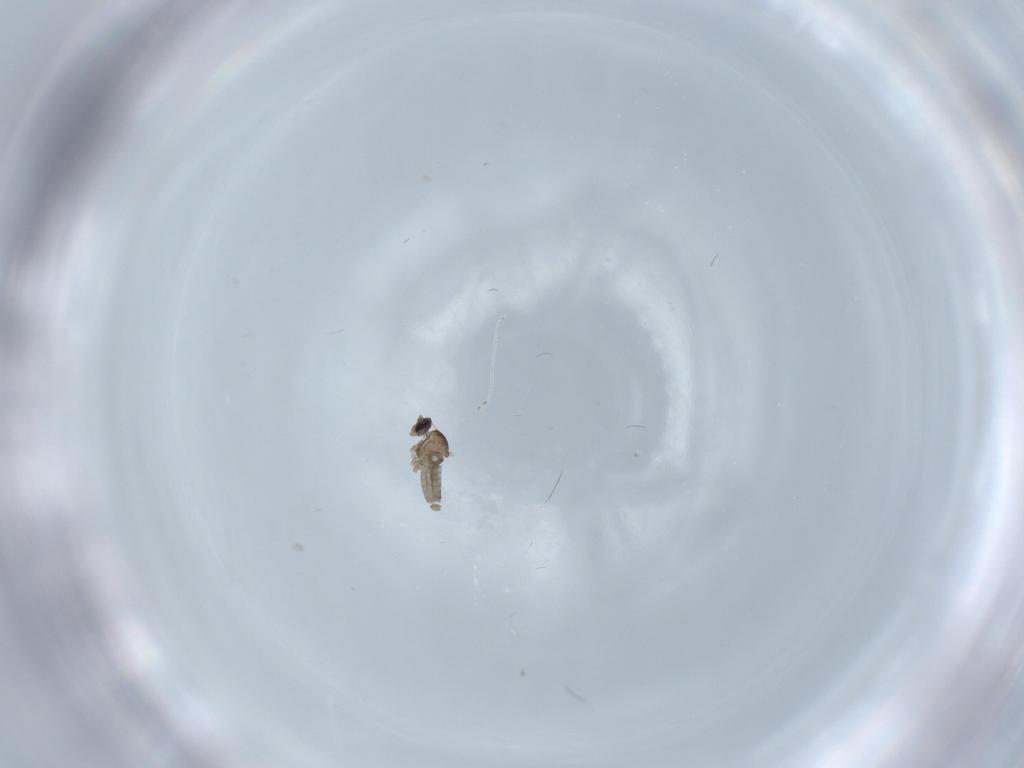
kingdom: Animalia
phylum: Arthropoda
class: Insecta
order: Diptera
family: Cecidomyiidae
